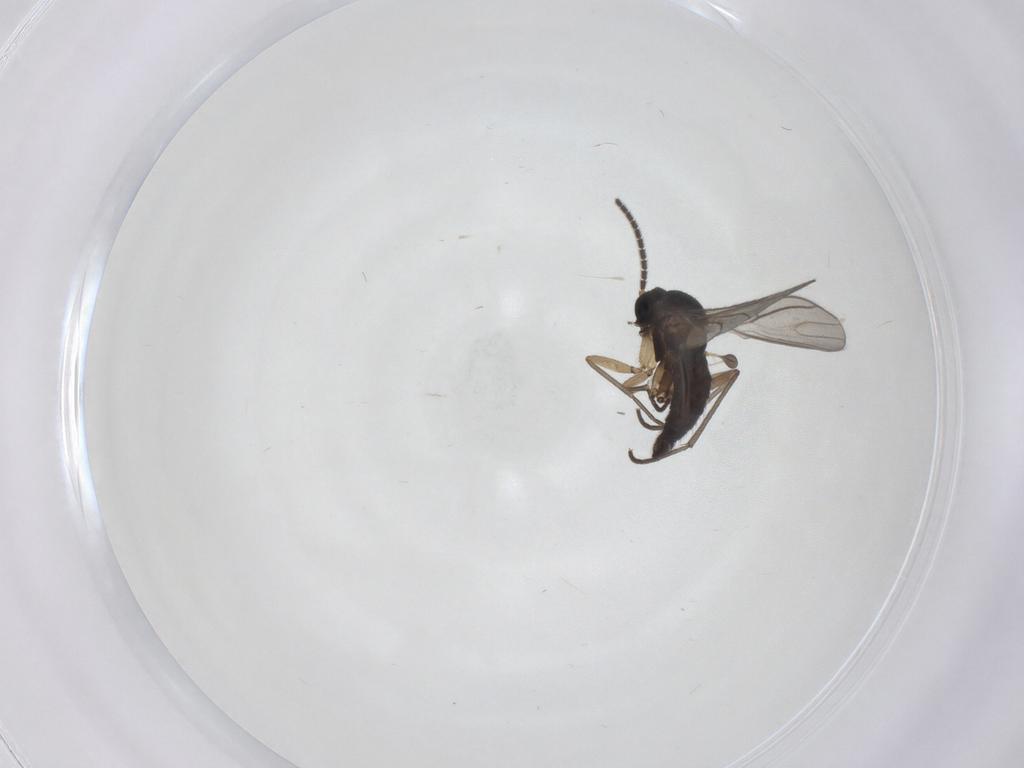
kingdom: Animalia
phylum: Arthropoda
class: Insecta
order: Diptera
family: Sciaridae
